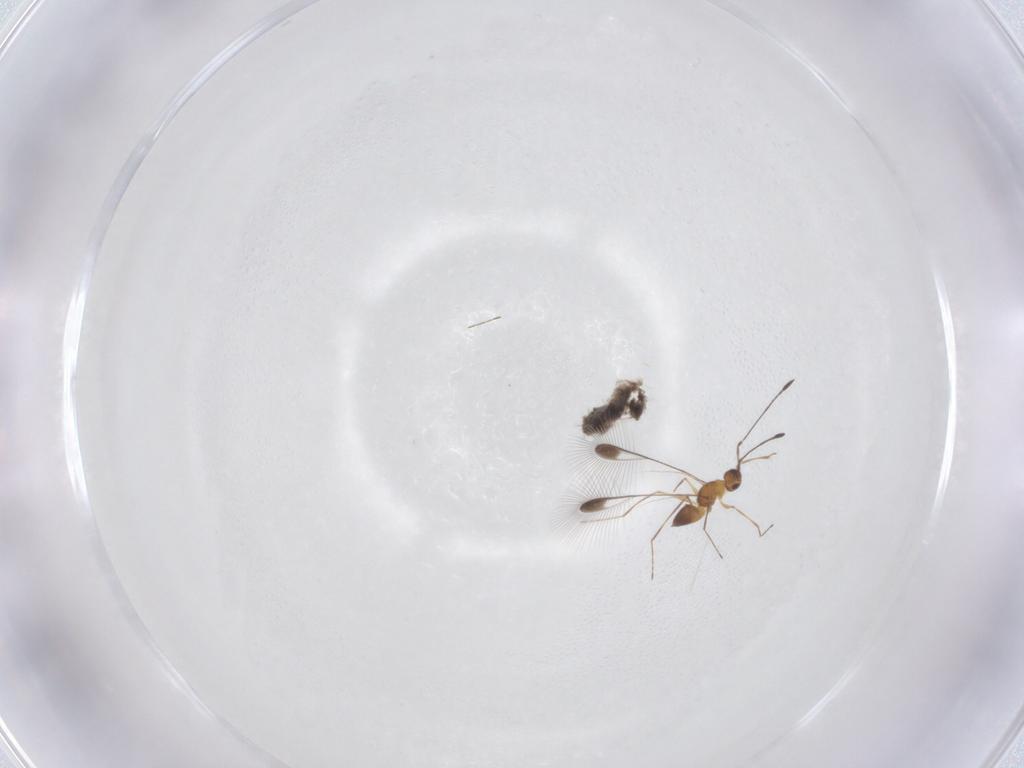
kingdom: Animalia
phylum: Arthropoda
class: Insecta
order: Hymenoptera
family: Mymaridae
